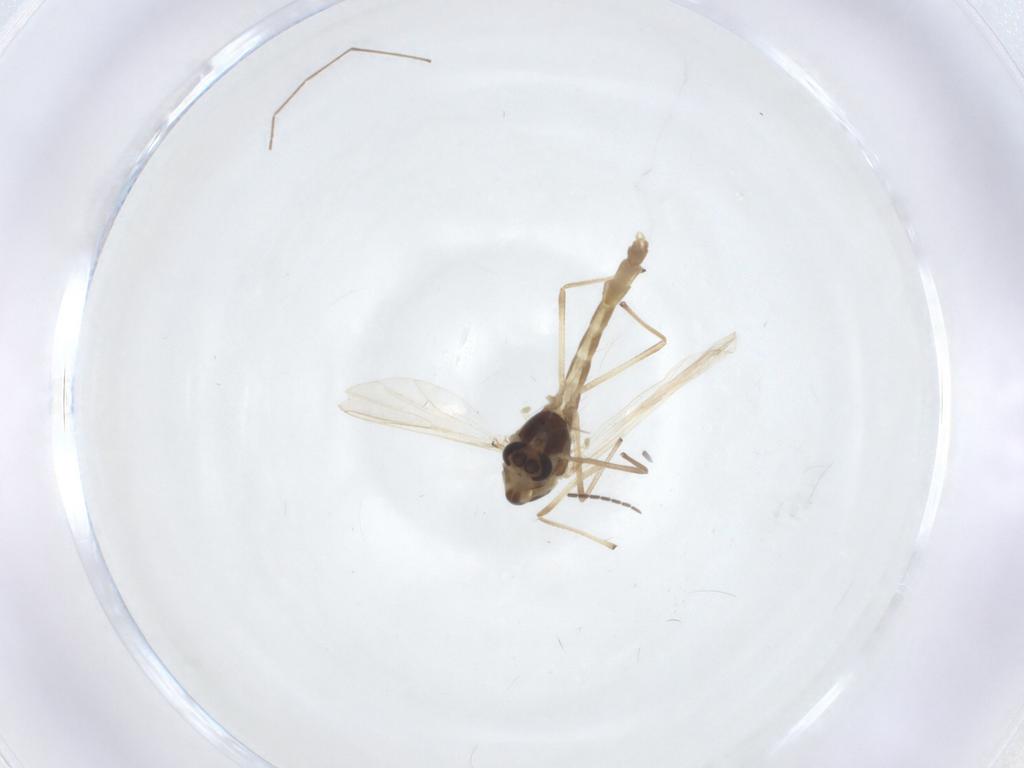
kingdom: Animalia
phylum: Arthropoda
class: Insecta
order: Diptera
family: Chironomidae
